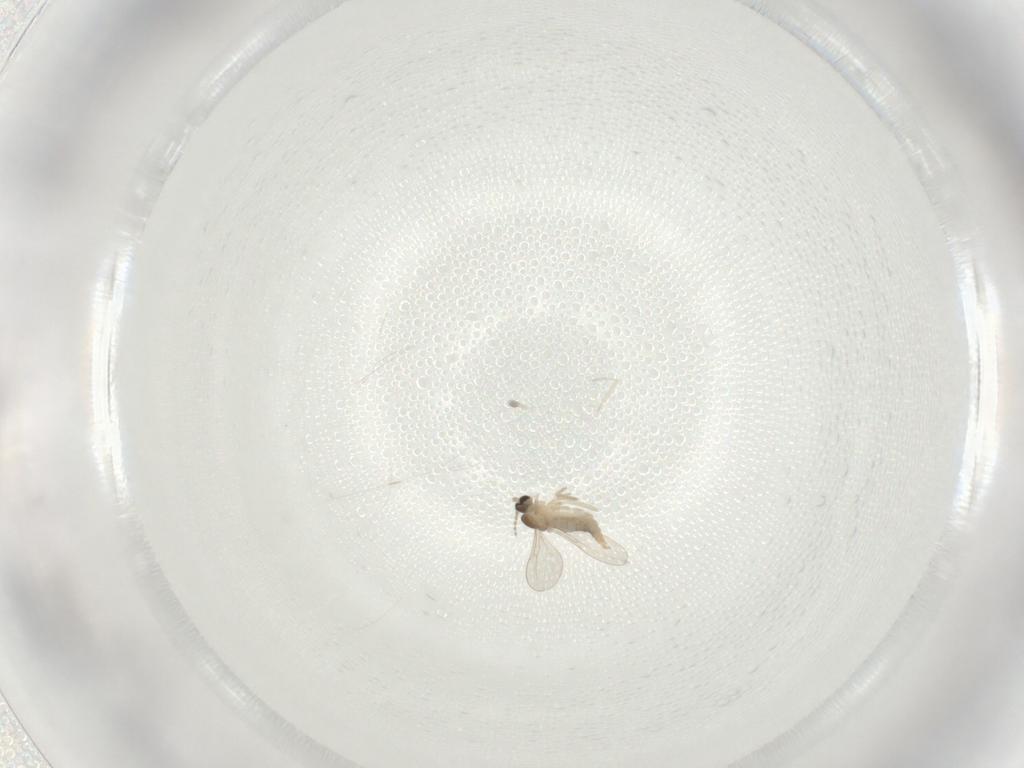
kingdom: Animalia
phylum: Arthropoda
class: Insecta
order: Diptera
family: Cecidomyiidae
